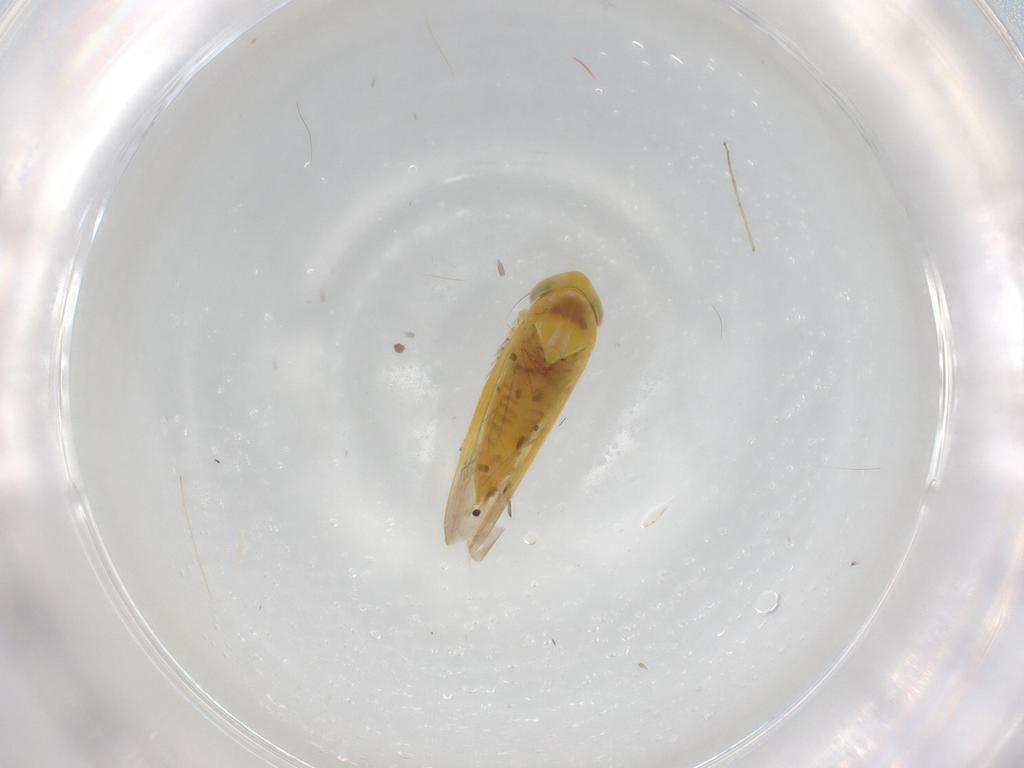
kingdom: Animalia
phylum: Arthropoda
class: Insecta
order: Hemiptera
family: Cicadellidae
